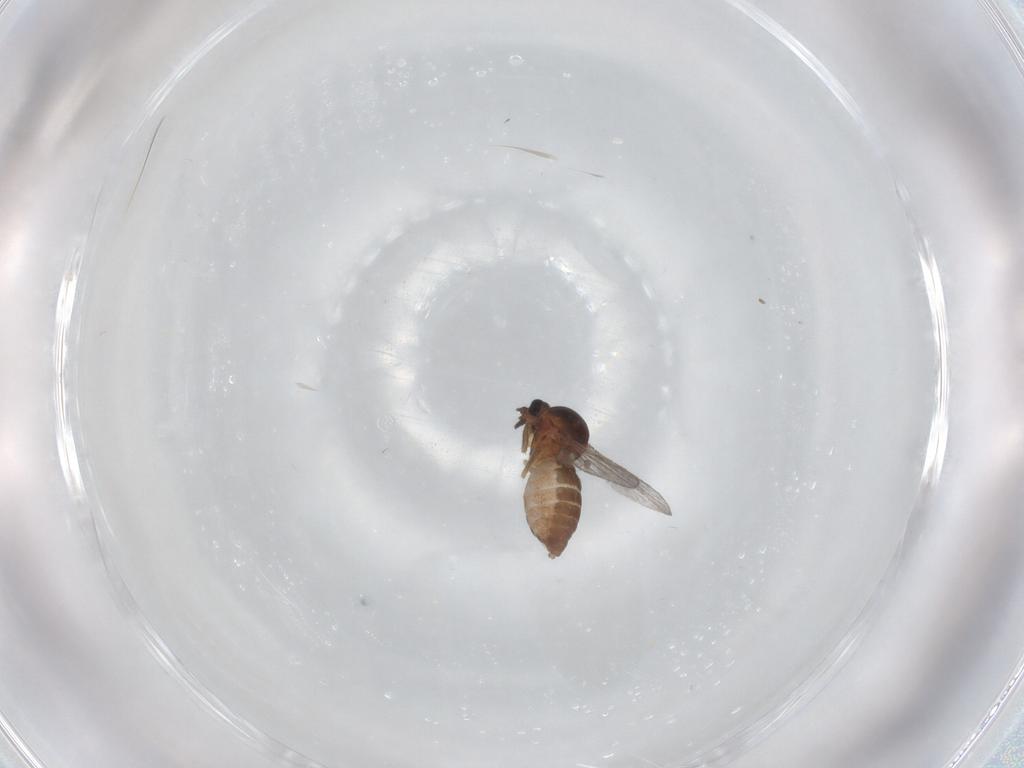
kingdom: Animalia
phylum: Arthropoda
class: Insecta
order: Diptera
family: Ceratopogonidae
